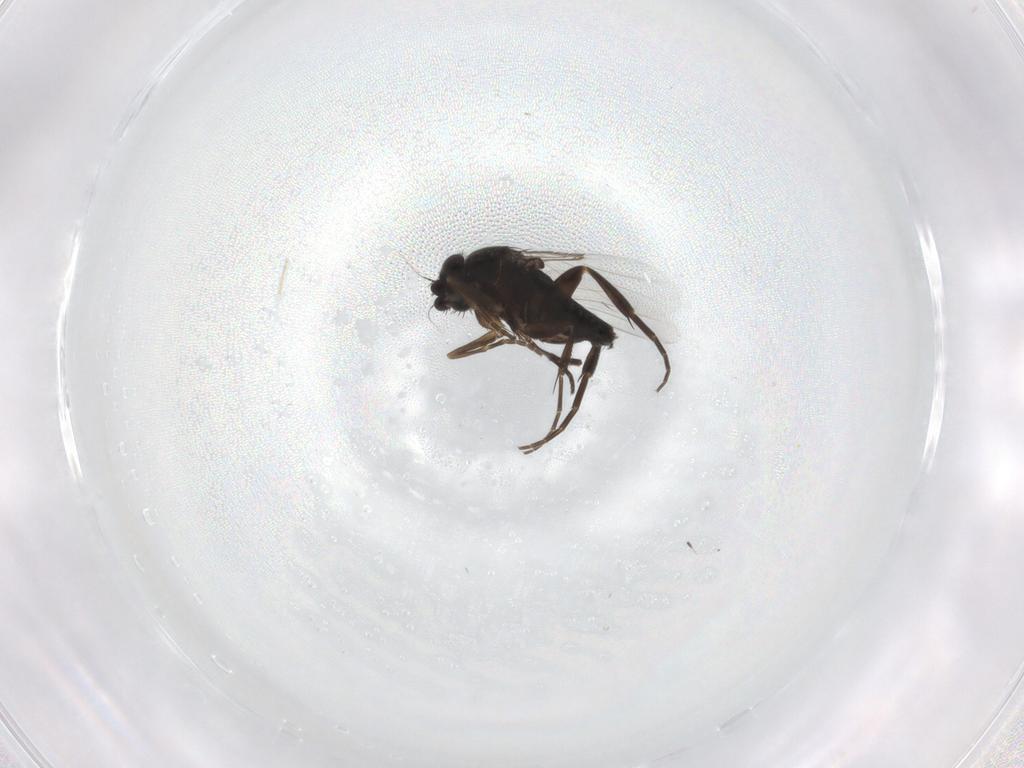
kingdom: Animalia
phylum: Arthropoda
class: Insecta
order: Diptera
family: Phoridae
